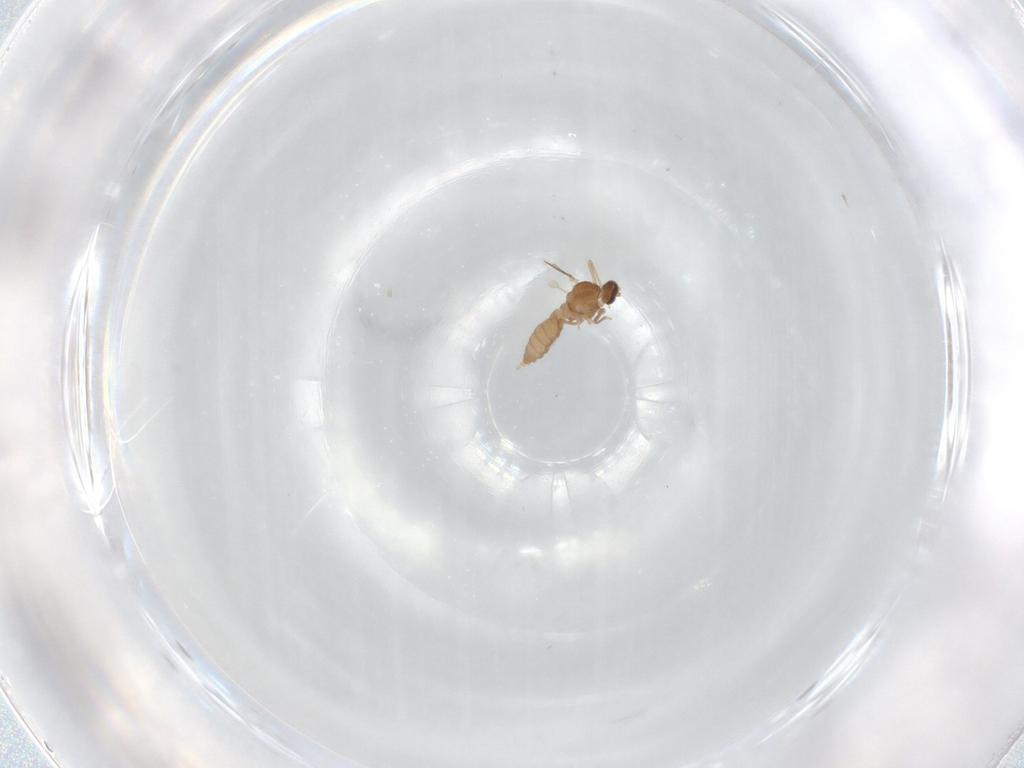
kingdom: Animalia
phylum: Arthropoda
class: Insecta
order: Diptera
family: Cecidomyiidae
